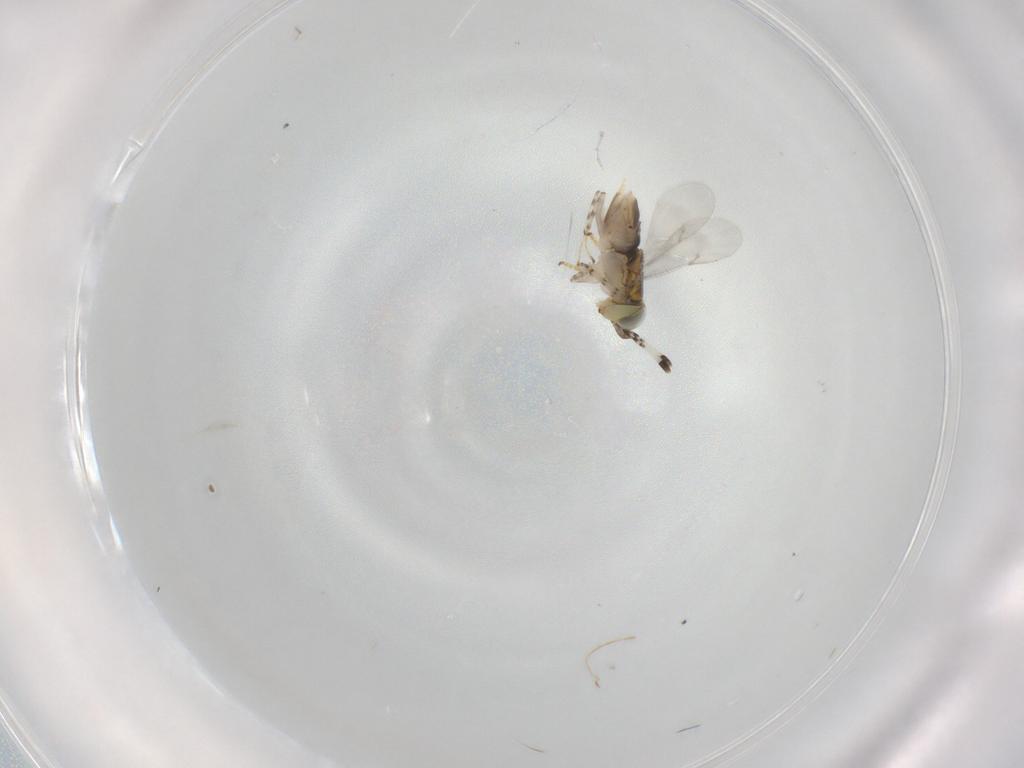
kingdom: Animalia
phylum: Arthropoda
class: Insecta
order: Hymenoptera
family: Encyrtidae
